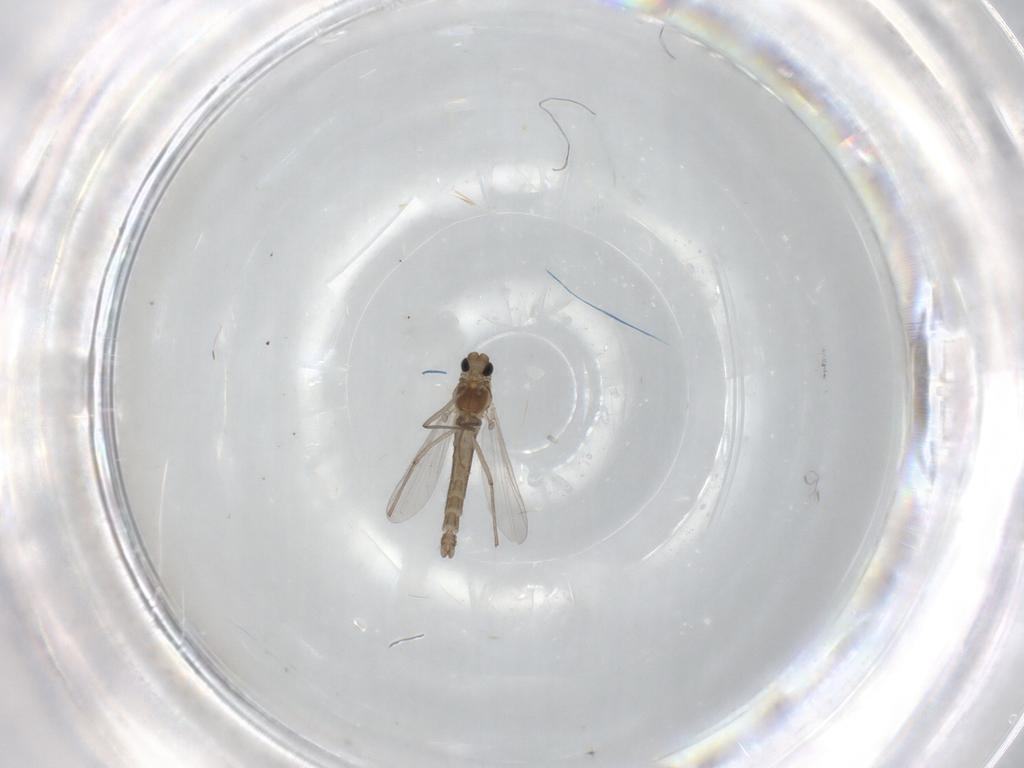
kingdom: Animalia
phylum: Arthropoda
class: Insecta
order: Diptera
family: Chironomidae
